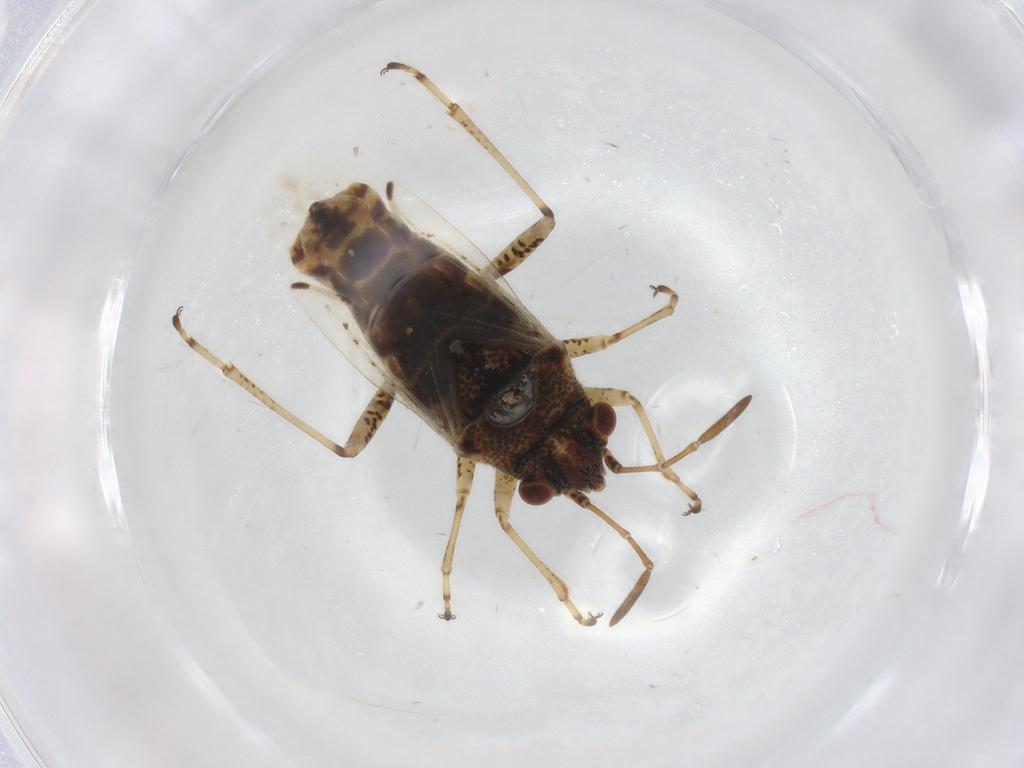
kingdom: Animalia
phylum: Arthropoda
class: Insecta
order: Hemiptera
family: Lygaeidae
